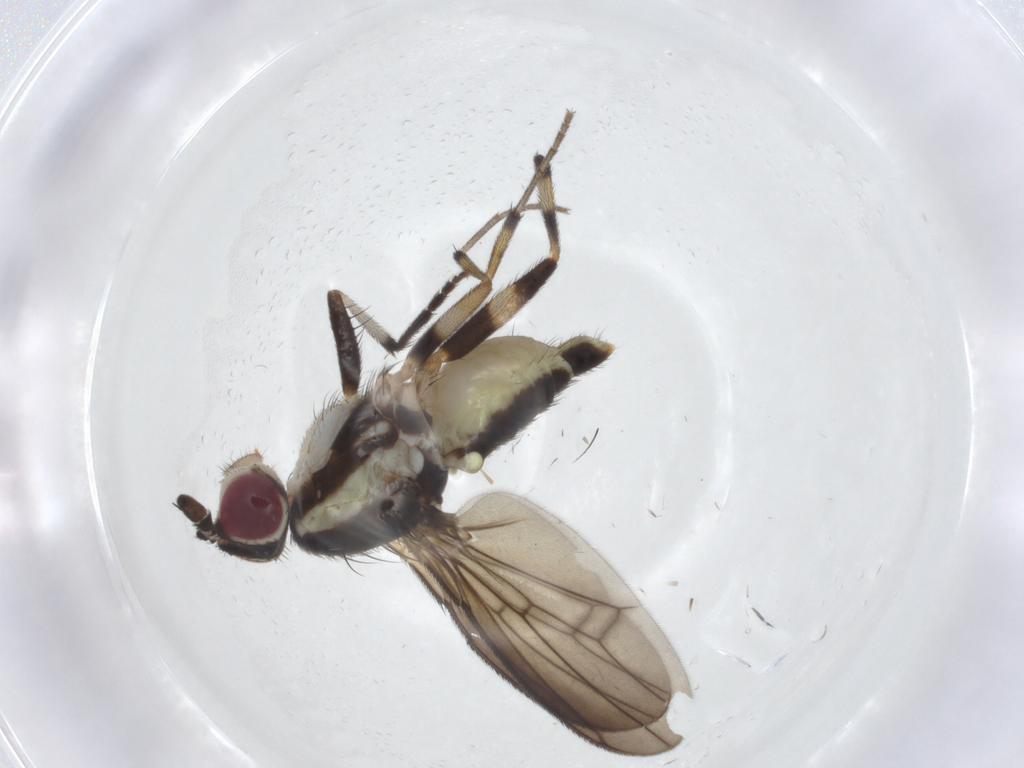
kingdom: Animalia
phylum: Arthropoda
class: Insecta
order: Diptera
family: Pseudopomyzidae
